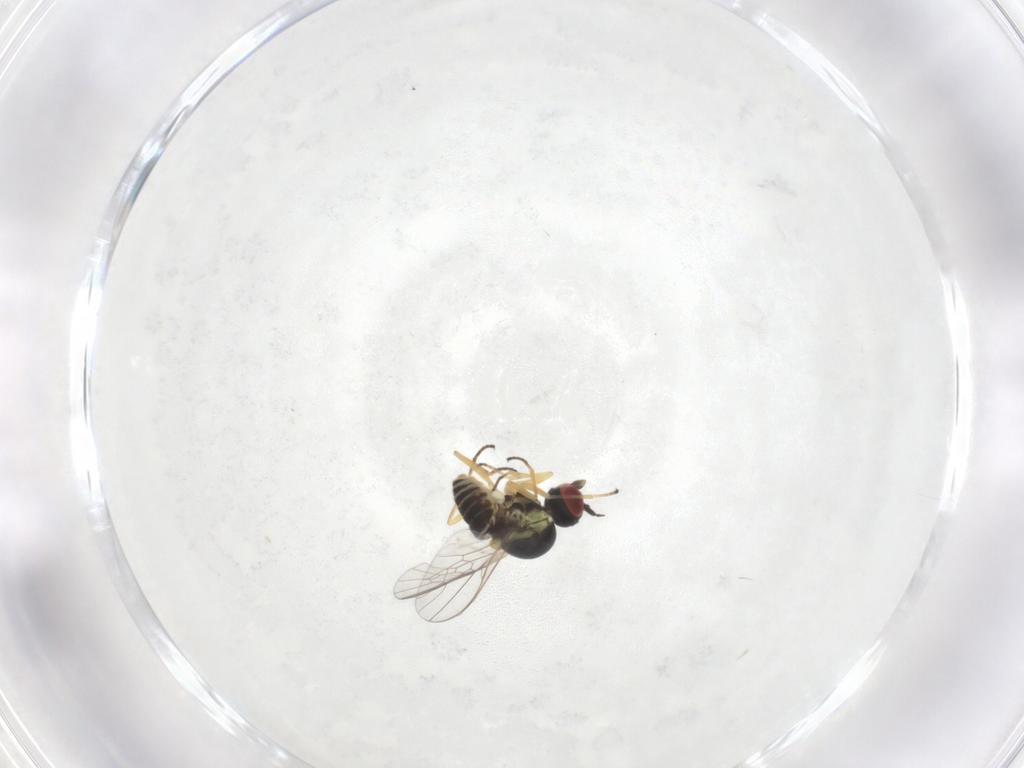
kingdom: Animalia
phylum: Arthropoda
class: Insecta
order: Diptera
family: Bombyliidae
